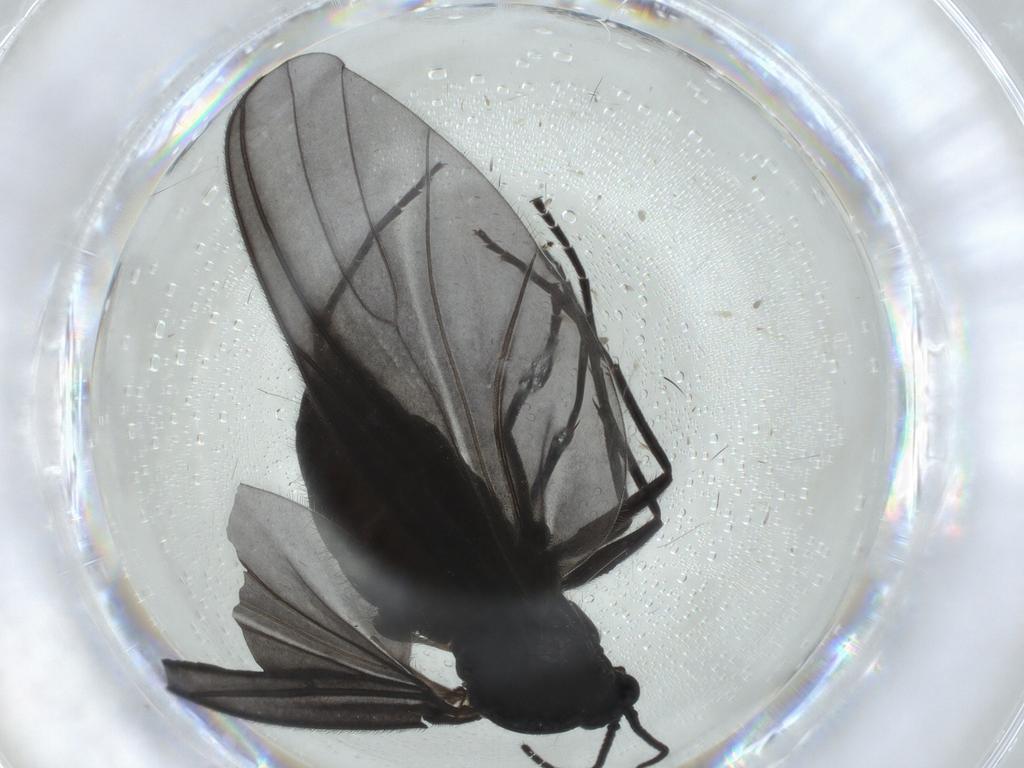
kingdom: Animalia
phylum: Arthropoda
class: Insecta
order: Diptera
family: Sciaridae
